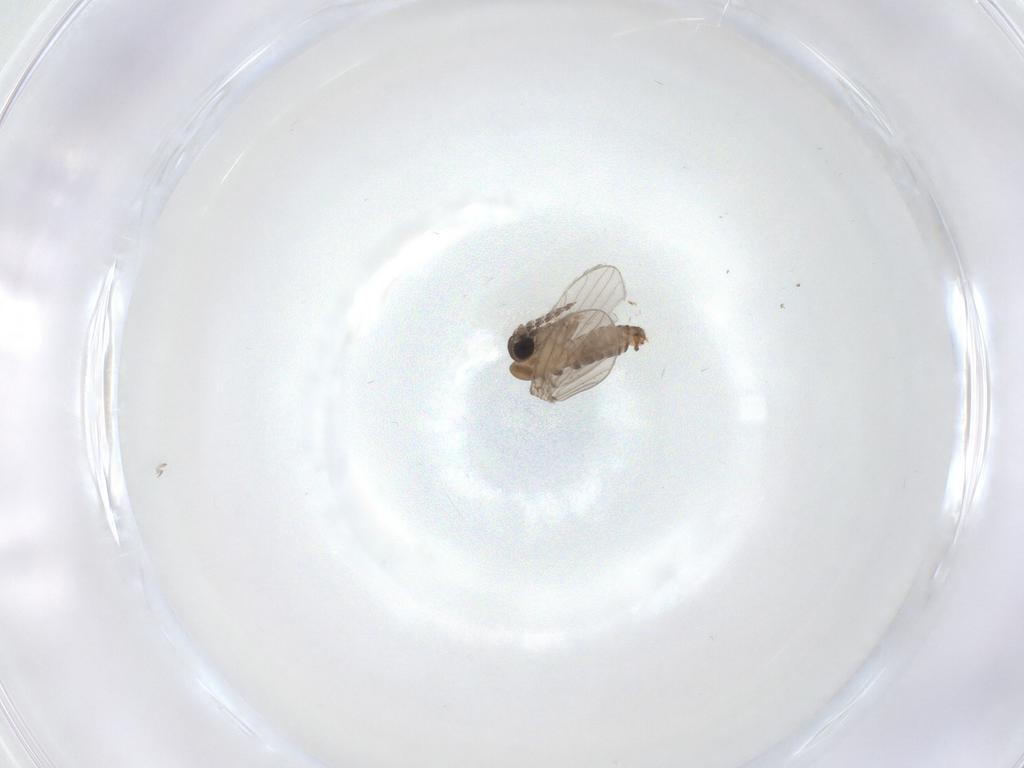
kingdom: Animalia
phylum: Arthropoda
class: Insecta
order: Diptera
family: Psychodidae
